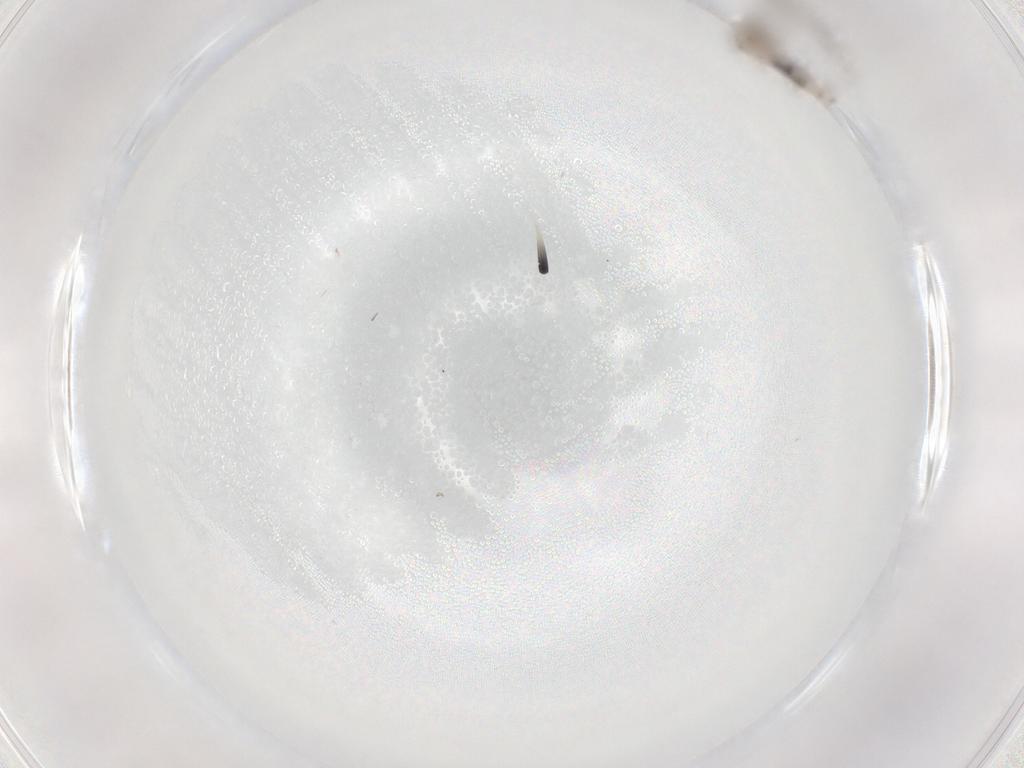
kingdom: Animalia
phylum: Arthropoda
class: Insecta
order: Diptera
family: Psychodidae
